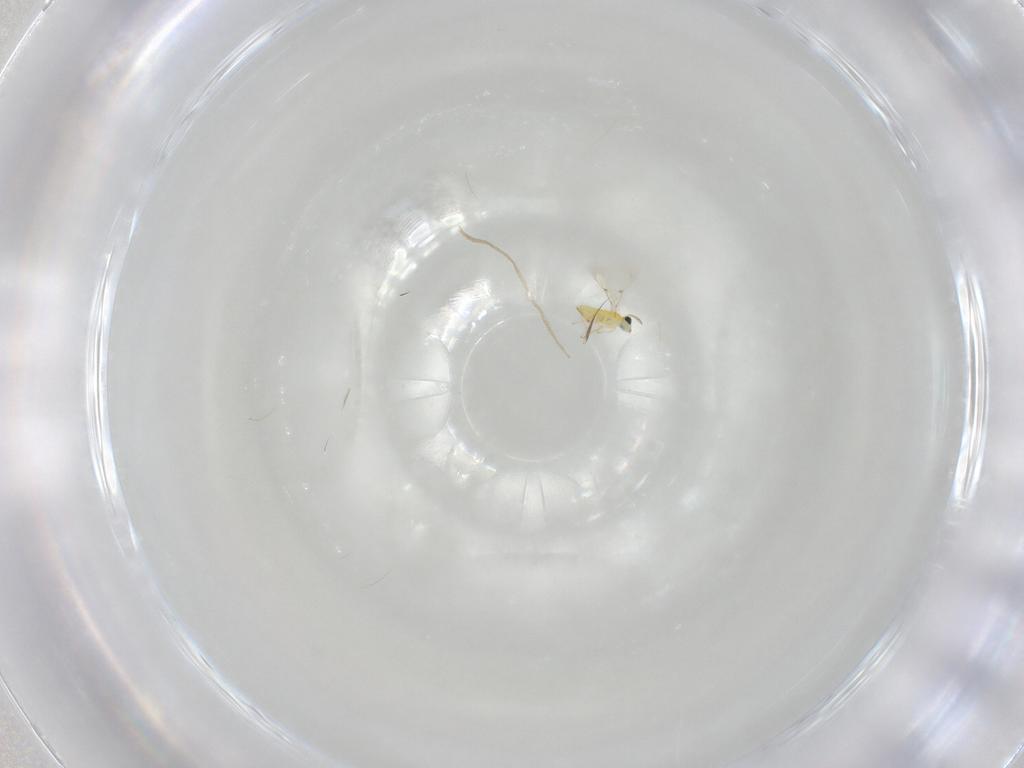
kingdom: Animalia
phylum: Arthropoda
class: Insecta
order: Hymenoptera
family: Trichogrammatidae
